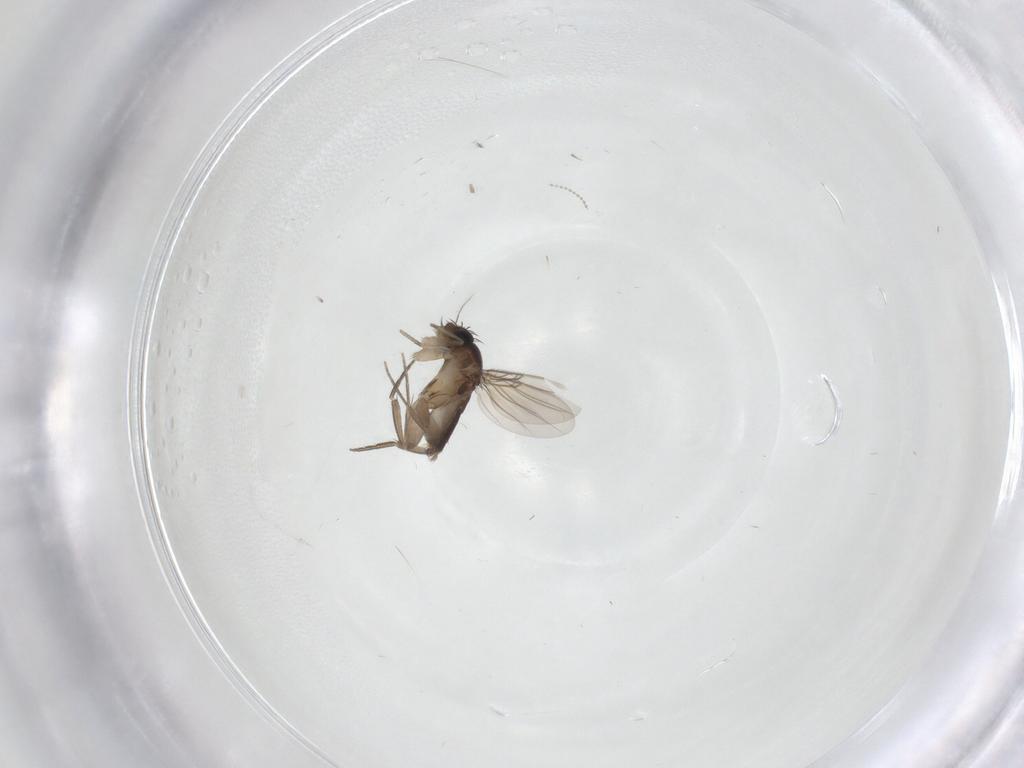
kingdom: Animalia
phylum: Arthropoda
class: Insecta
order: Diptera
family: Phoridae
